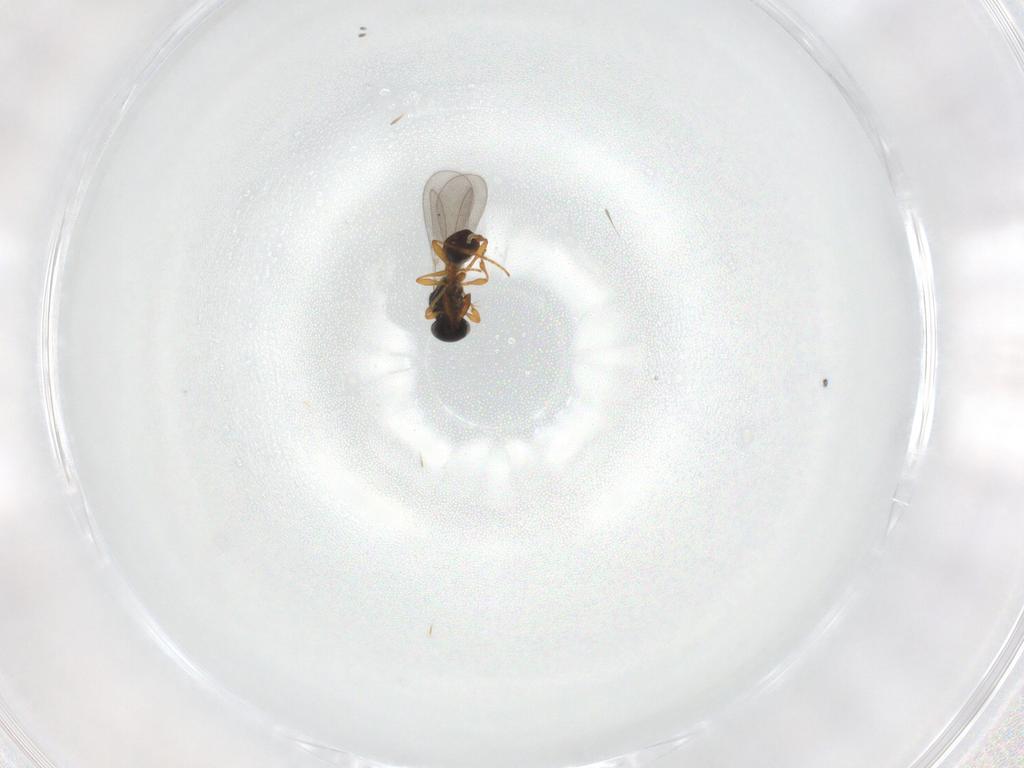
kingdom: Animalia
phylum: Arthropoda
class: Insecta
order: Hymenoptera
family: Platygastridae
